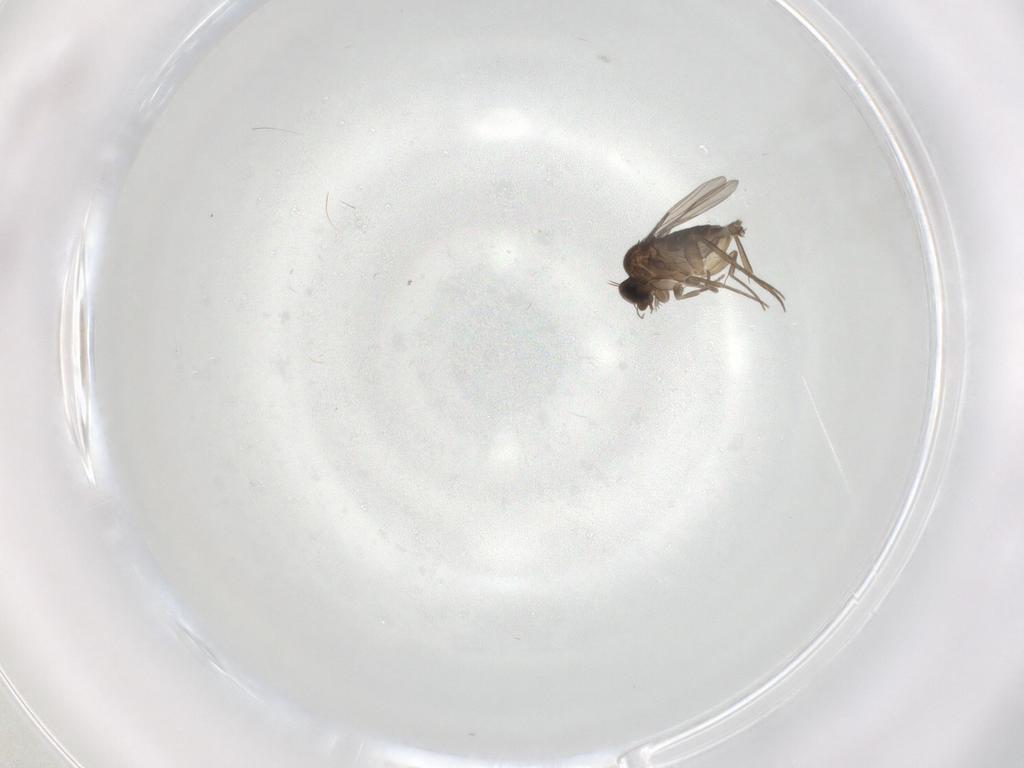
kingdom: Animalia
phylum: Arthropoda
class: Insecta
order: Diptera
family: Phoridae
